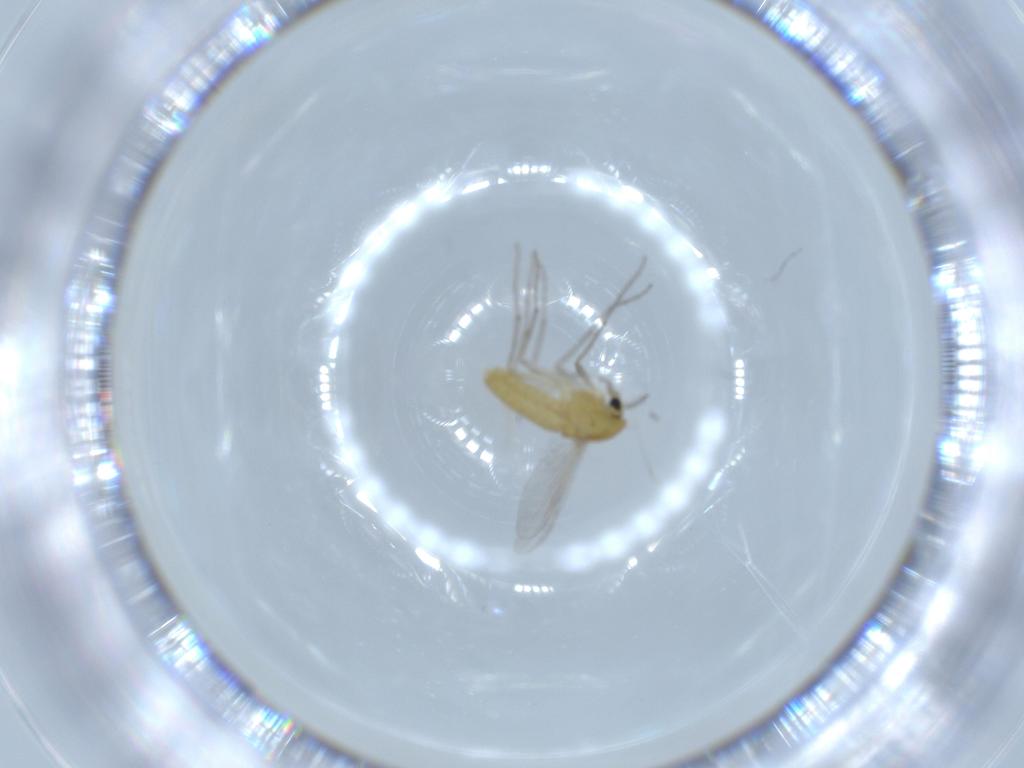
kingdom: Animalia
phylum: Arthropoda
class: Insecta
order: Diptera
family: Chironomidae
